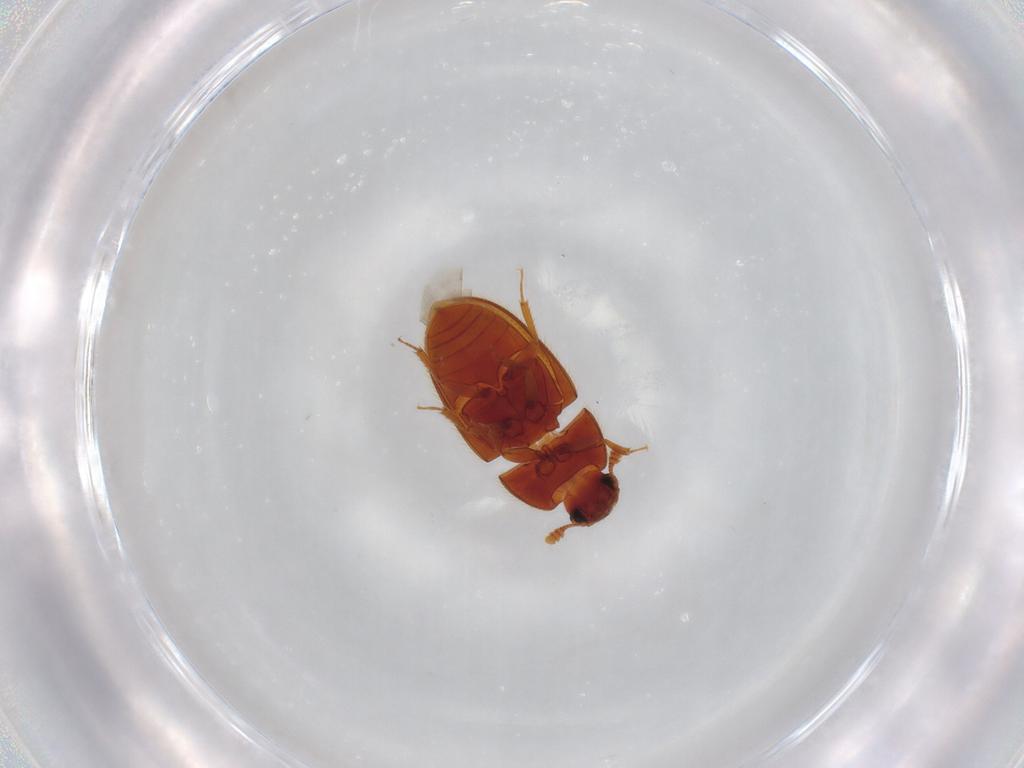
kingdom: Animalia
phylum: Arthropoda
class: Insecta
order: Coleoptera
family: Biphyllidae
